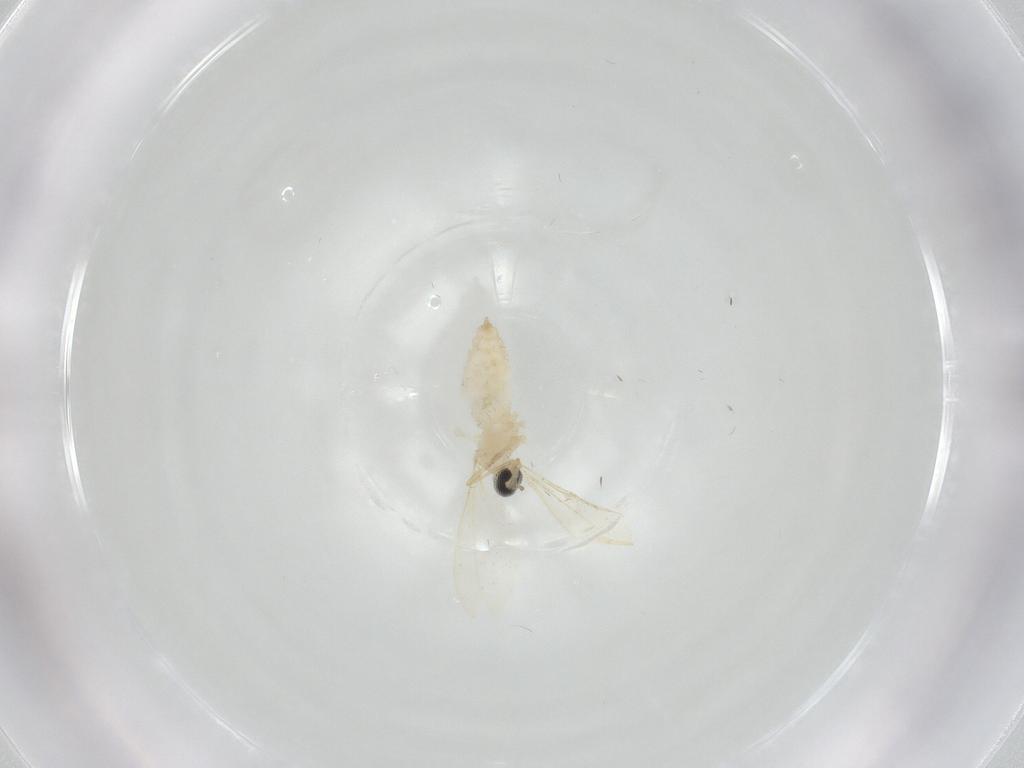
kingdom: Animalia
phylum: Arthropoda
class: Insecta
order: Diptera
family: Cecidomyiidae
